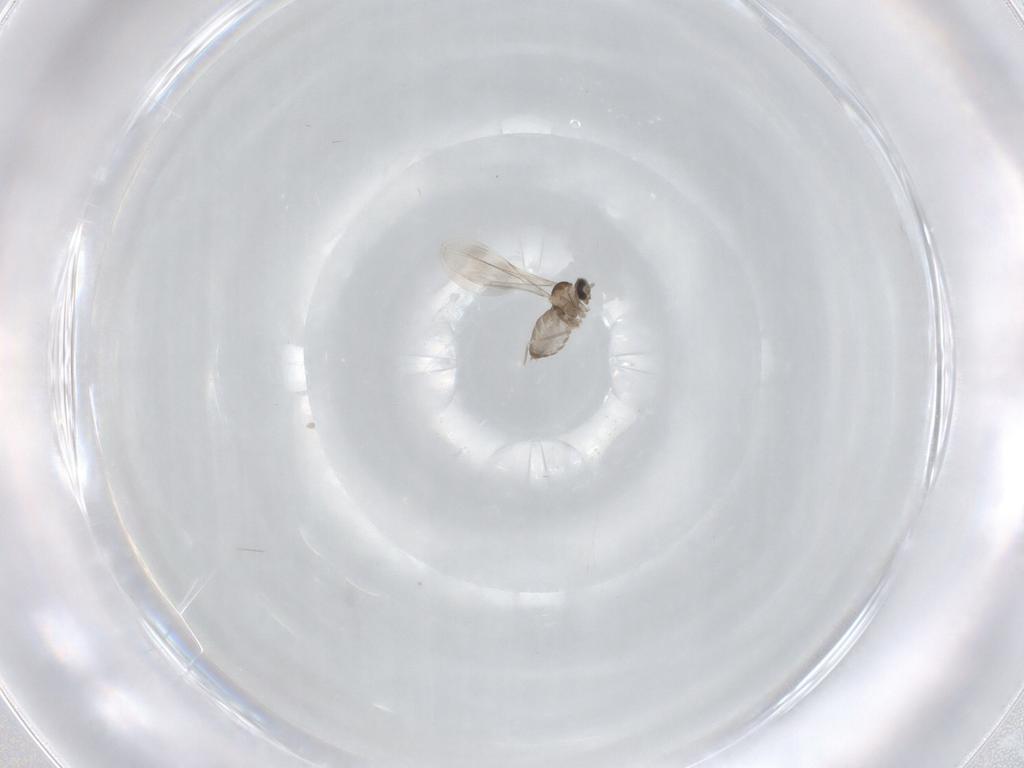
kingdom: Animalia
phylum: Arthropoda
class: Insecta
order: Diptera
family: Cecidomyiidae
